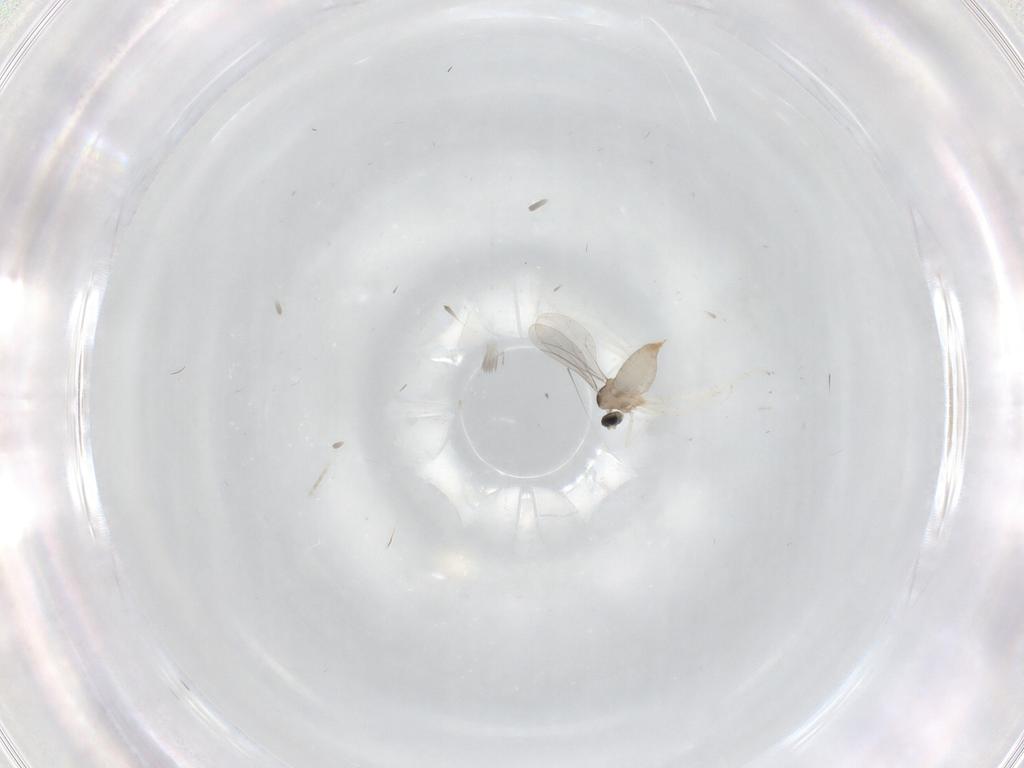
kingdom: Animalia
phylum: Arthropoda
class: Insecta
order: Diptera
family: Cecidomyiidae
